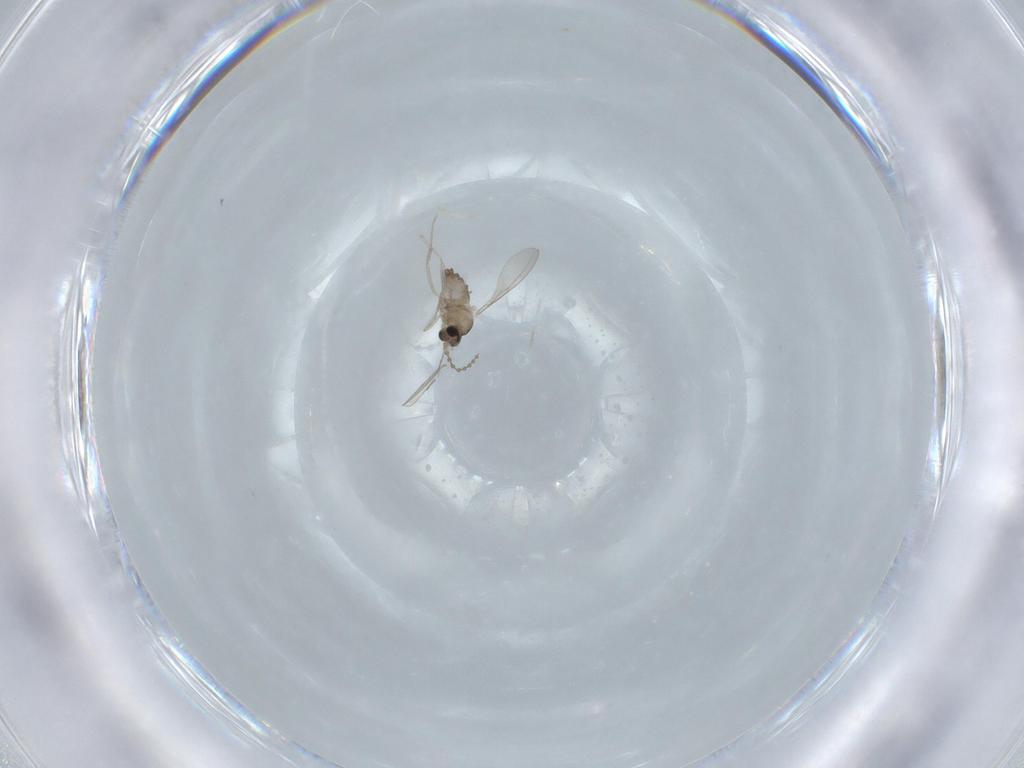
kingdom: Animalia
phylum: Arthropoda
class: Insecta
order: Diptera
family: Cecidomyiidae
